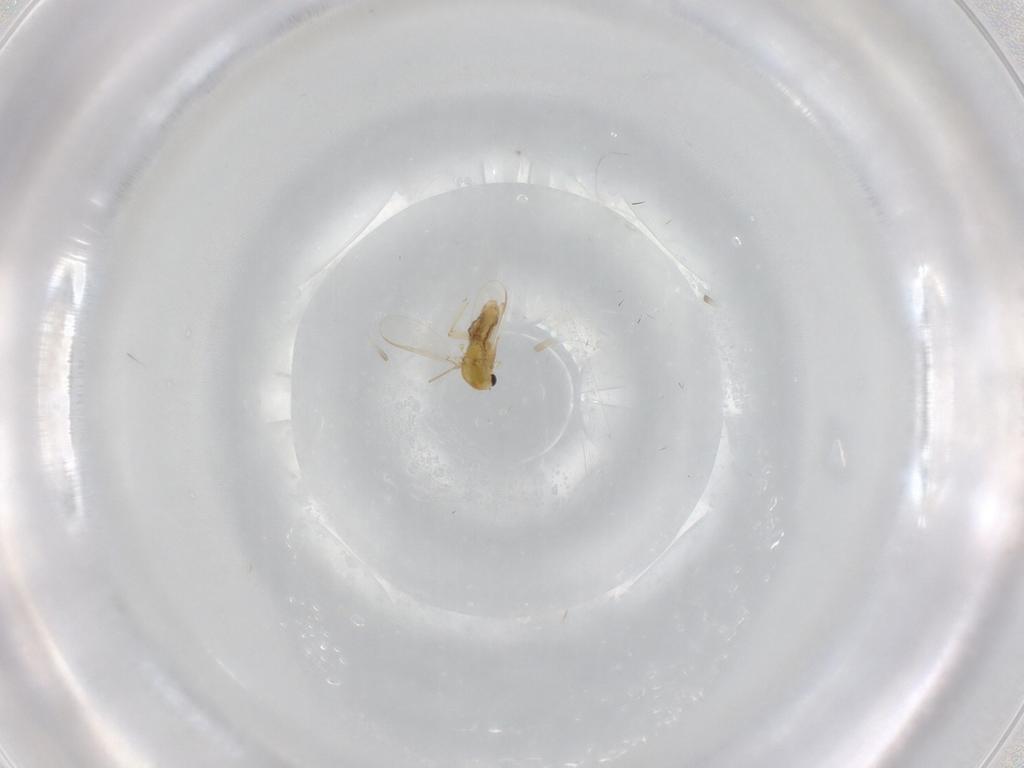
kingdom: Animalia
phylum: Arthropoda
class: Insecta
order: Diptera
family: Chironomidae
